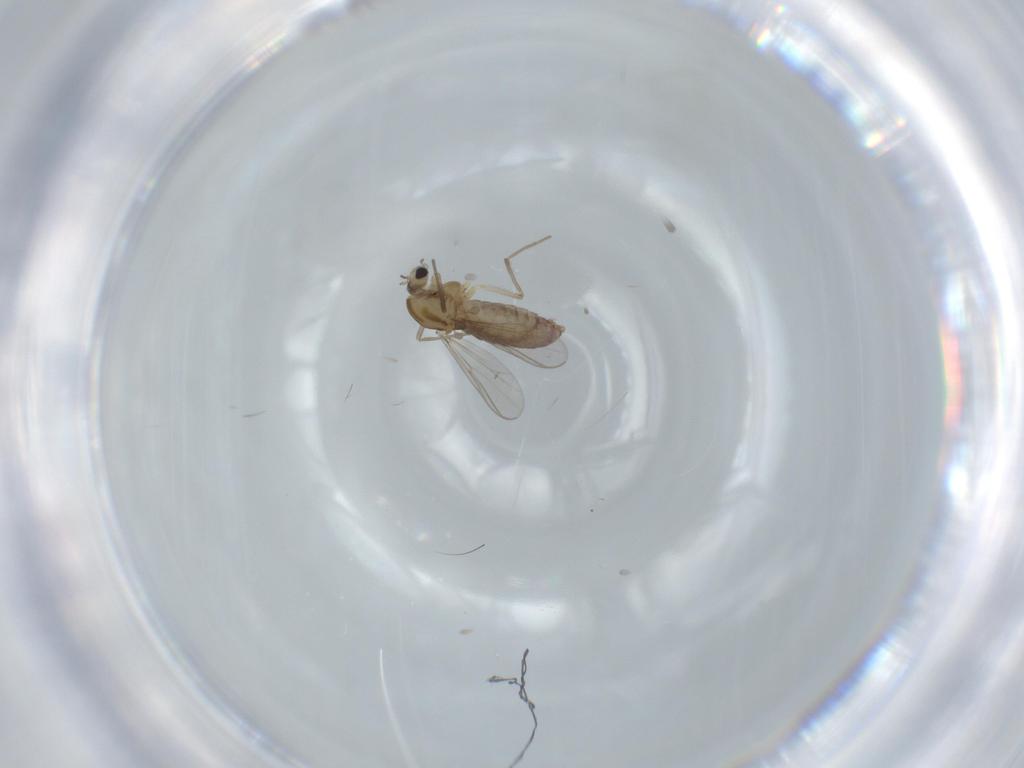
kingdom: Animalia
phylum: Arthropoda
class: Insecta
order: Diptera
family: Chironomidae
